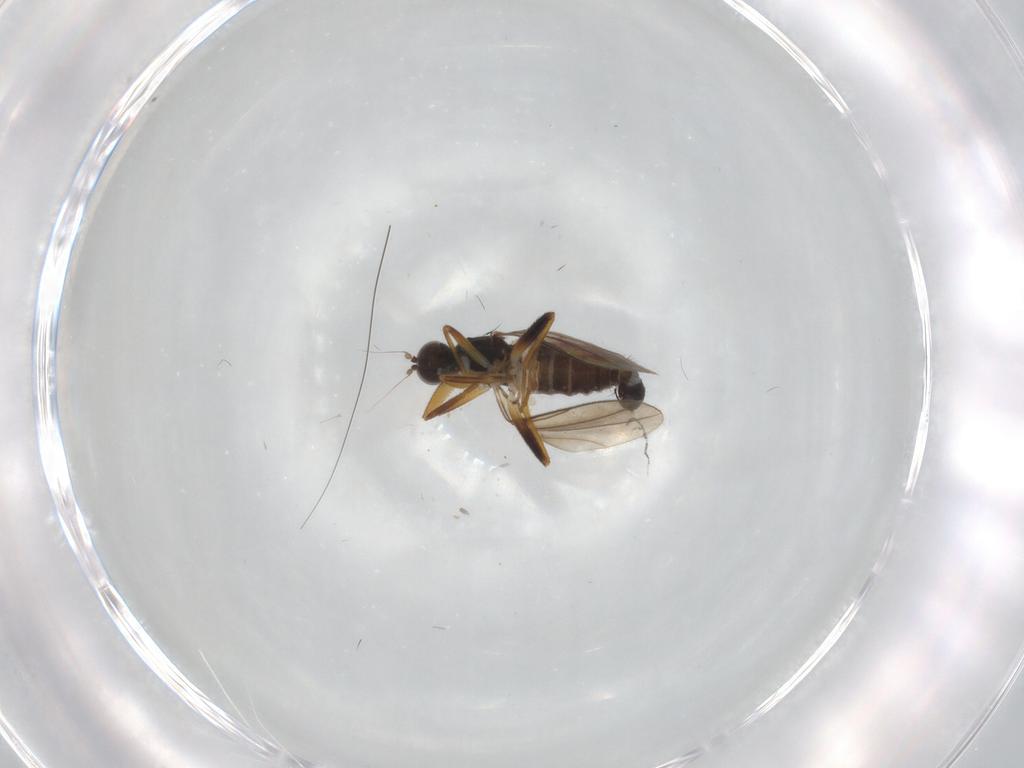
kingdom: Animalia
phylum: Arthropoda
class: Insecta
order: Diptera
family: Hybotidae
